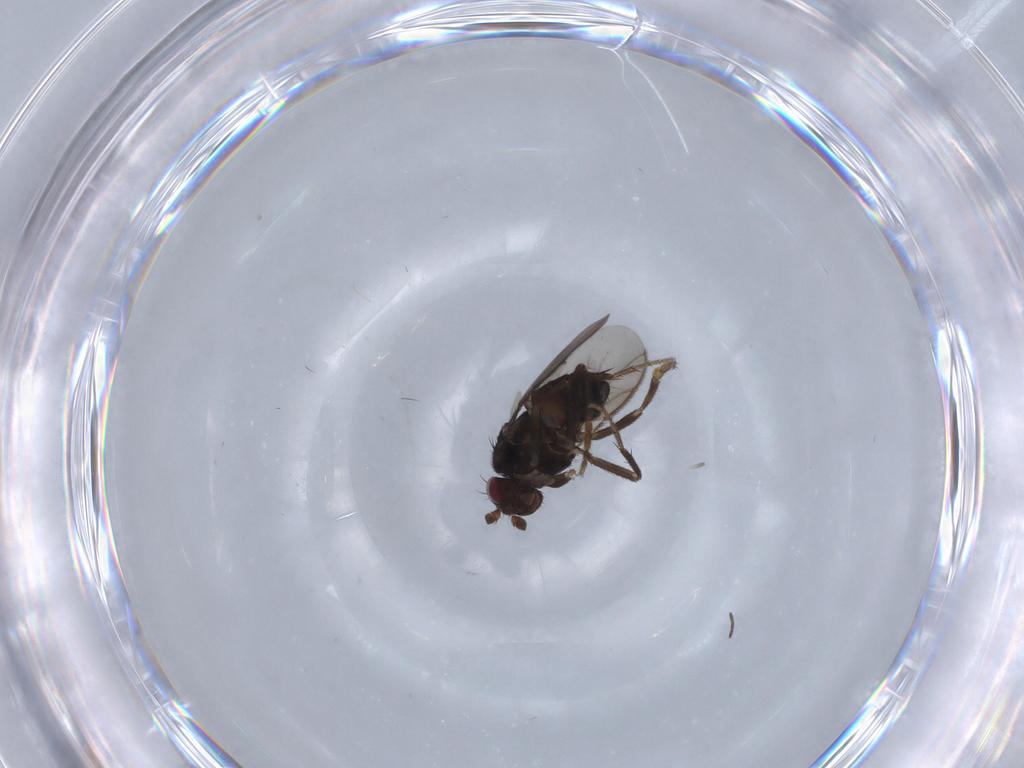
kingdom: Animalia
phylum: Arthropoda
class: Insecta
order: Diptera
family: Sphaeroceridae
